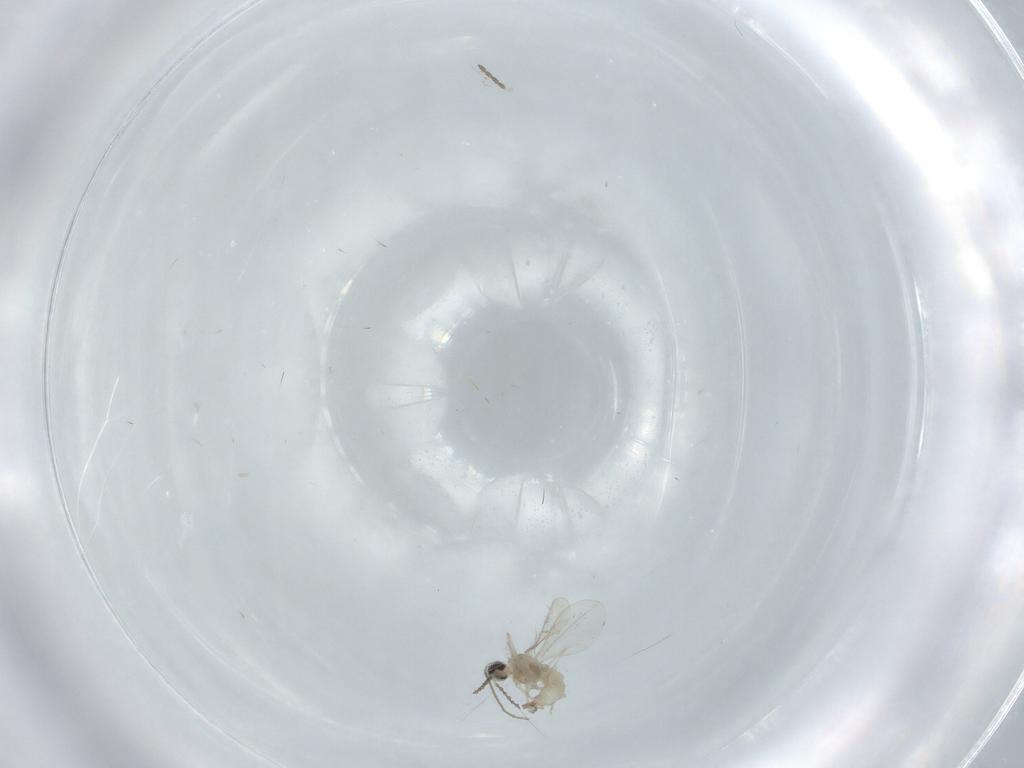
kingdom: Animalia
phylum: Arthropoda
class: Insecta
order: Diptera
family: Chironomidae
